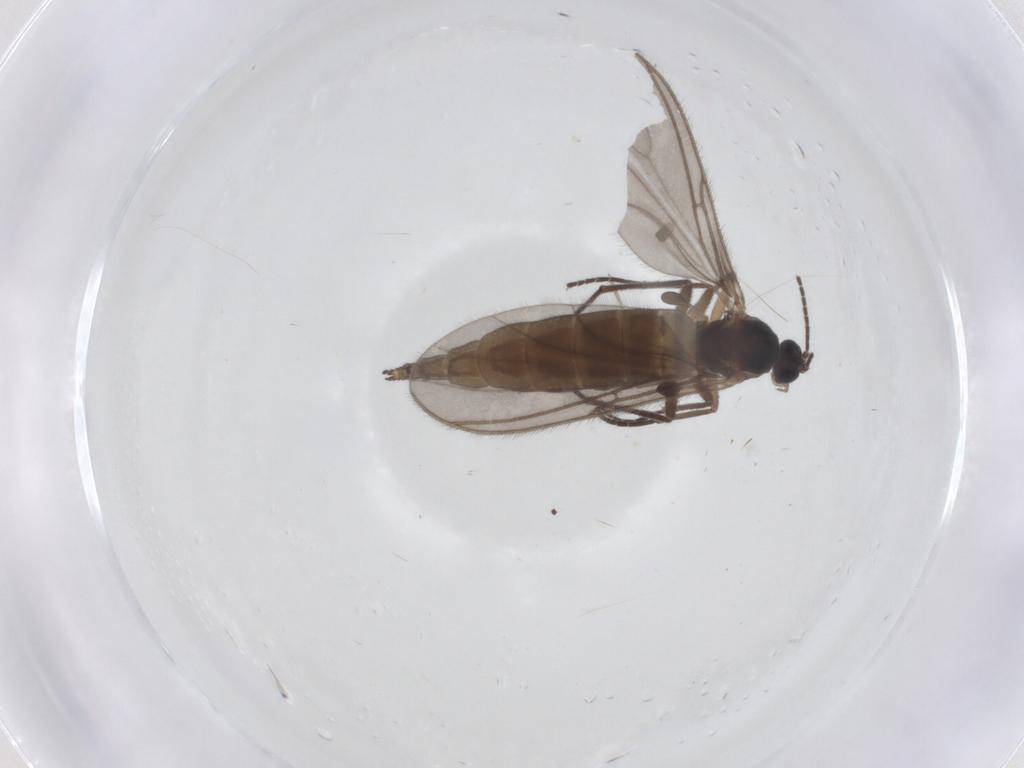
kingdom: Animalia
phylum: Arthropoda
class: Insecta
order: Diptera
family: Sciaridae
